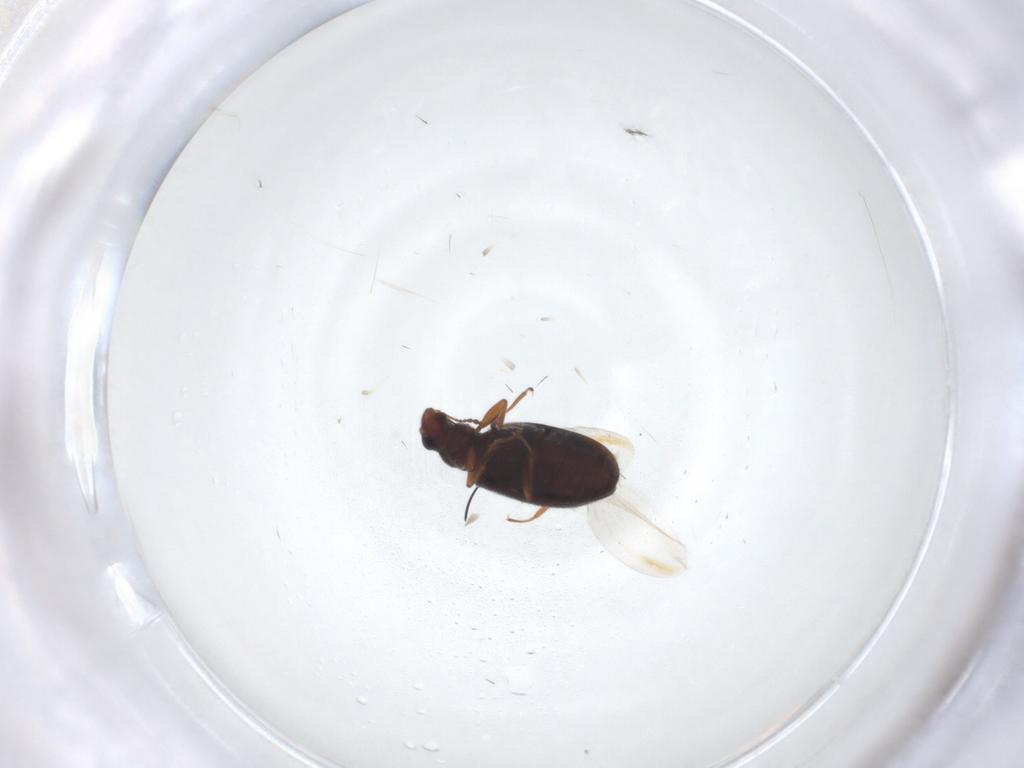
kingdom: Animalia
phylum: Arthropoda
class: Insecta
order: Coleoptera
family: Latridiidae
